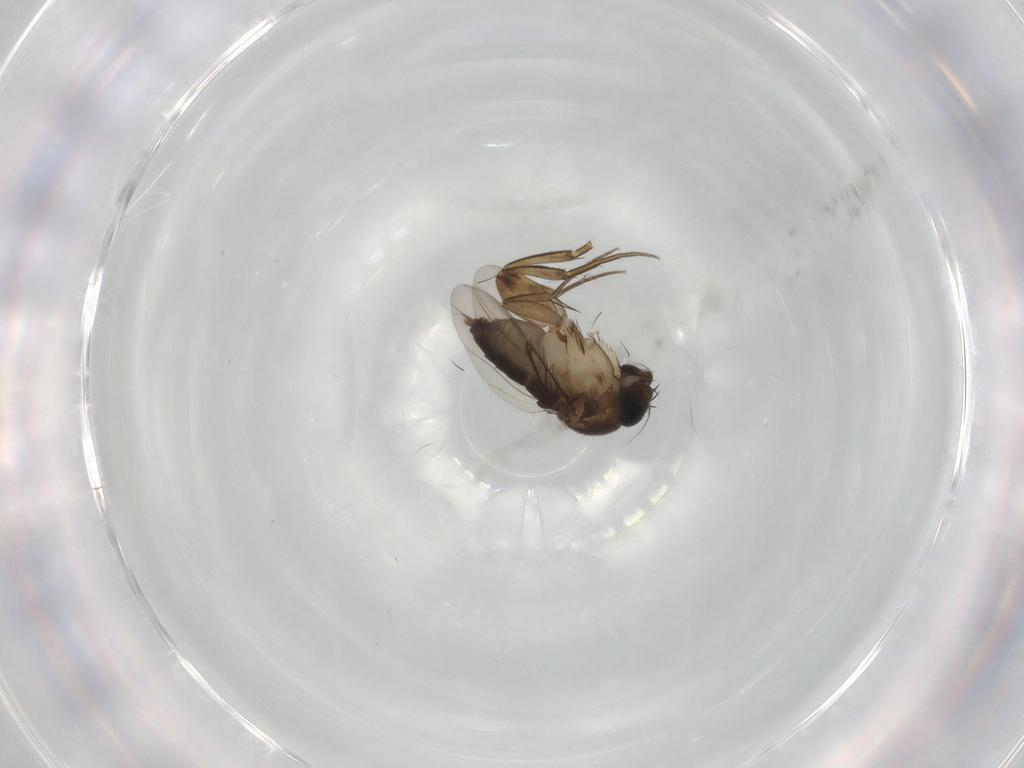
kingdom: Animalia
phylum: Arthropoda
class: Insecta
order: Diptera
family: Phoridae
